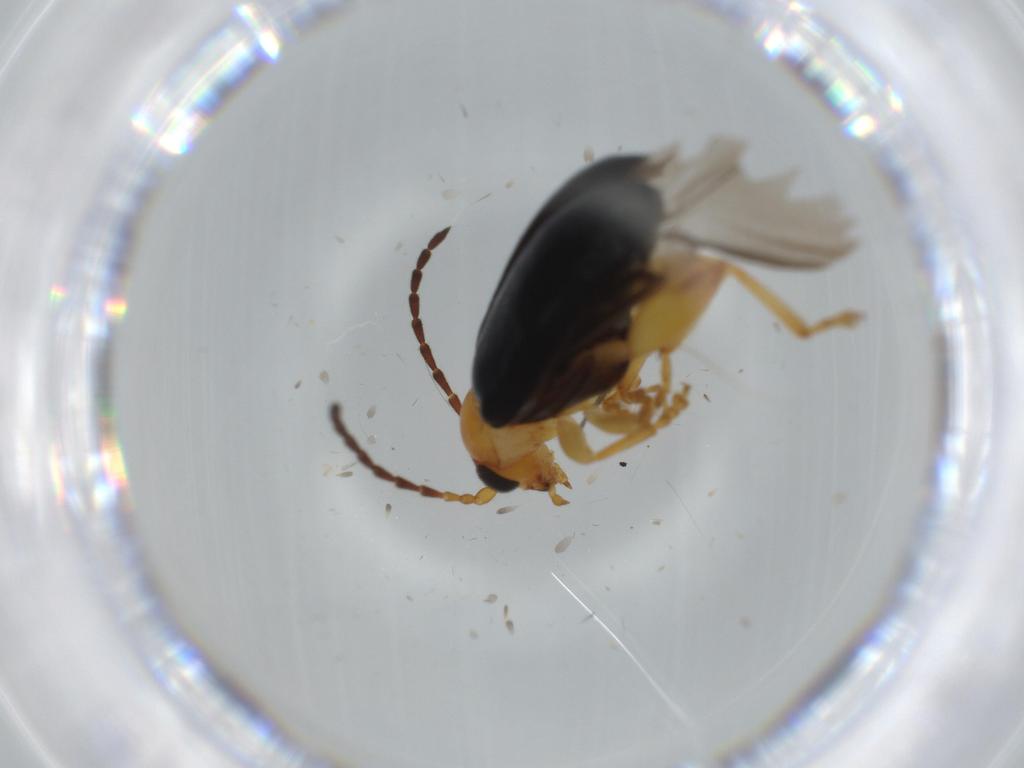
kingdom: Animalia
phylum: Arthropoda
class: Insecta
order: Coleoptera
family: Chrysomelidae
